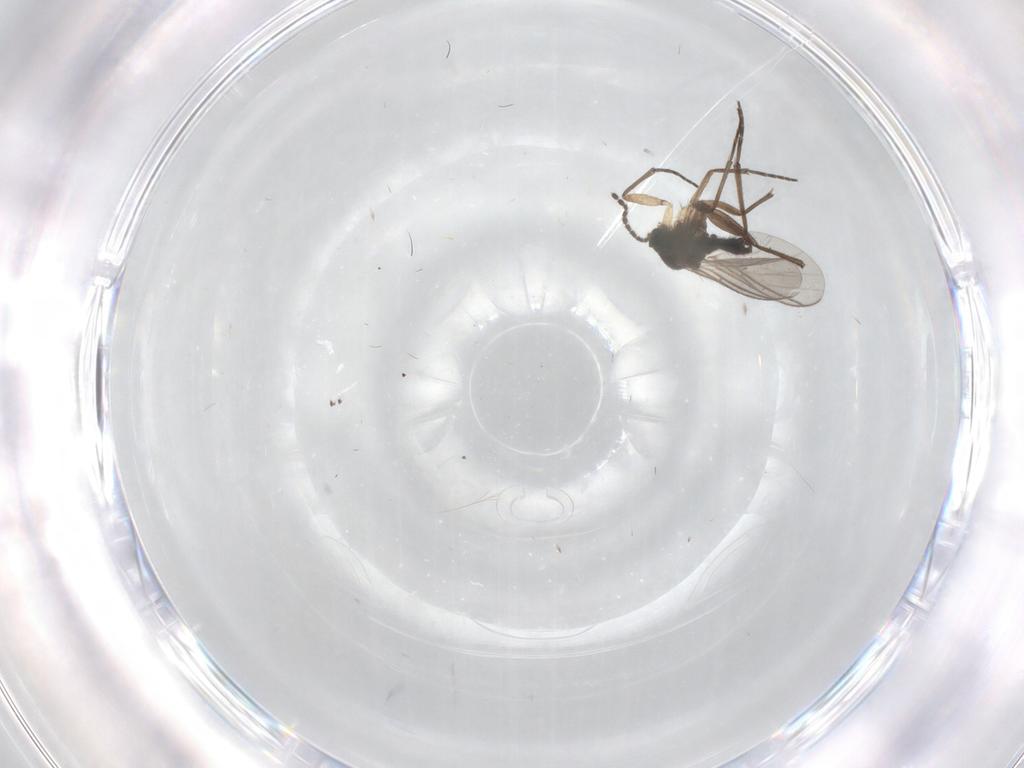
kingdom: Animalia
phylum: Arthropoda
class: Insecta
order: Diptera
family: Sciaridae
